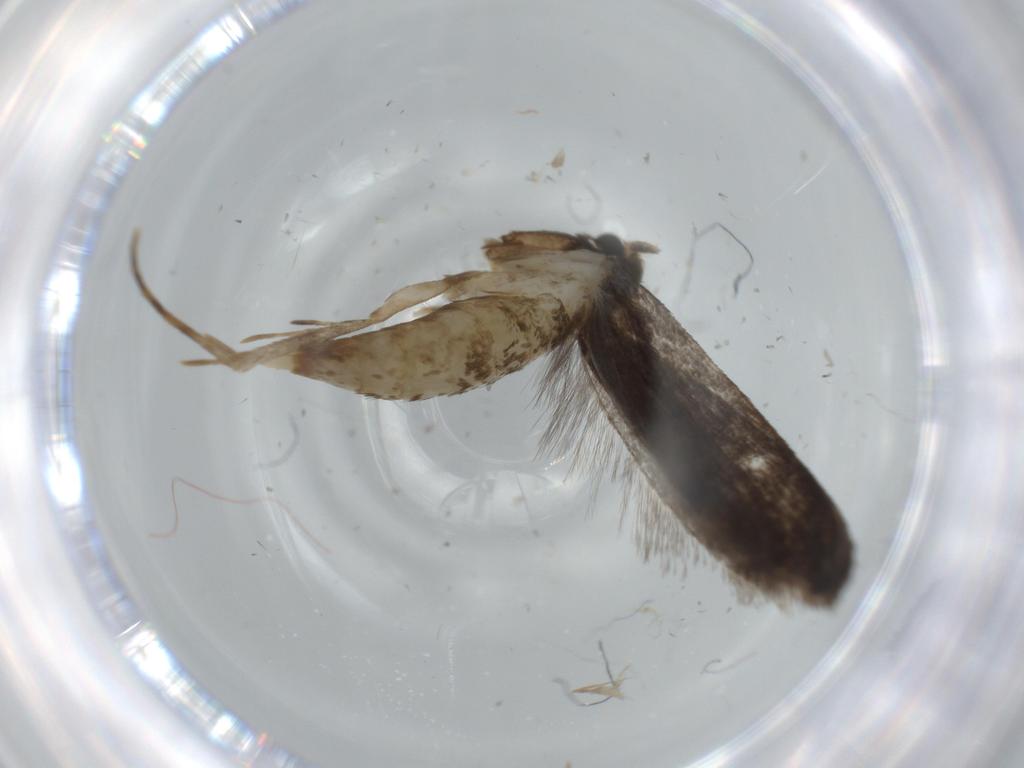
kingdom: Animalia
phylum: Arthropoda
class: Insecta
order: Lepidoptera
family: Tineidae
